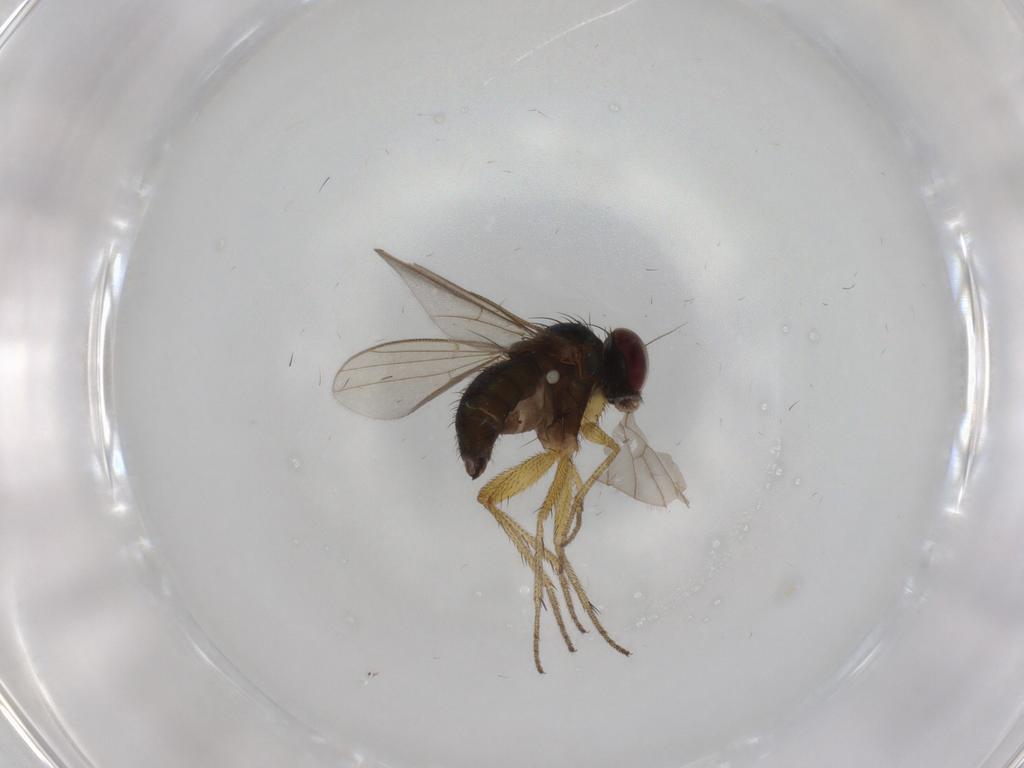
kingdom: Animalia
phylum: Arthropoda
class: Insecta
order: Diptera
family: Dolichopodidae
